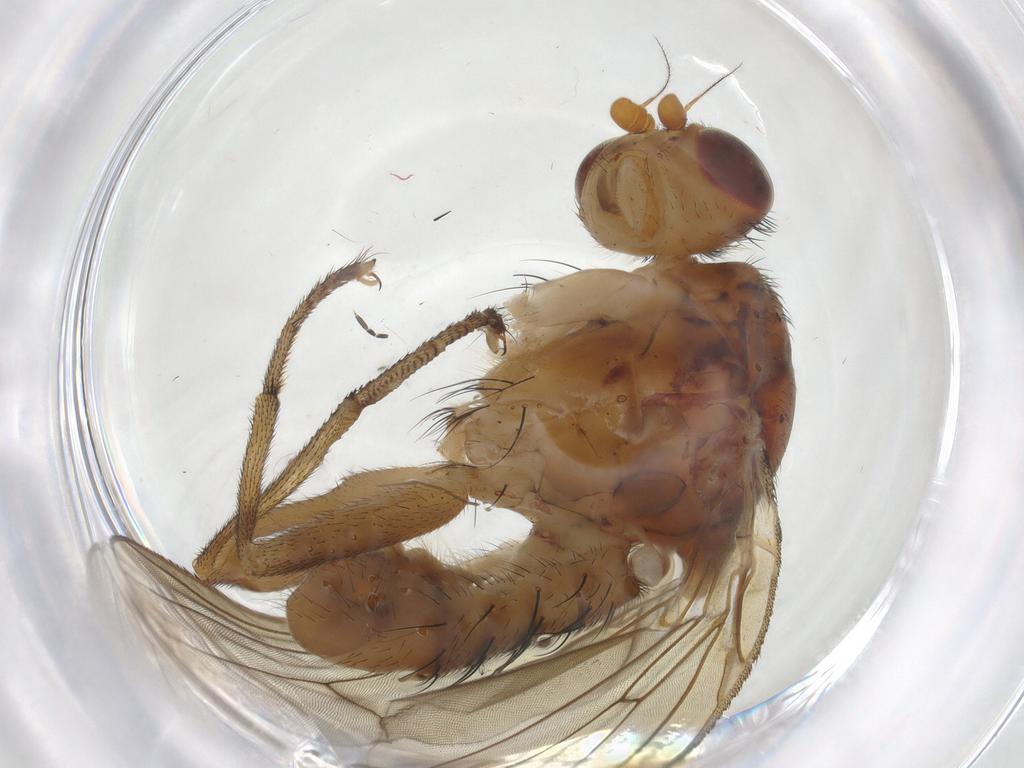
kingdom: Animalia
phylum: Arthropoda
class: Insecta
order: Diptera
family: Heleomyzidae
